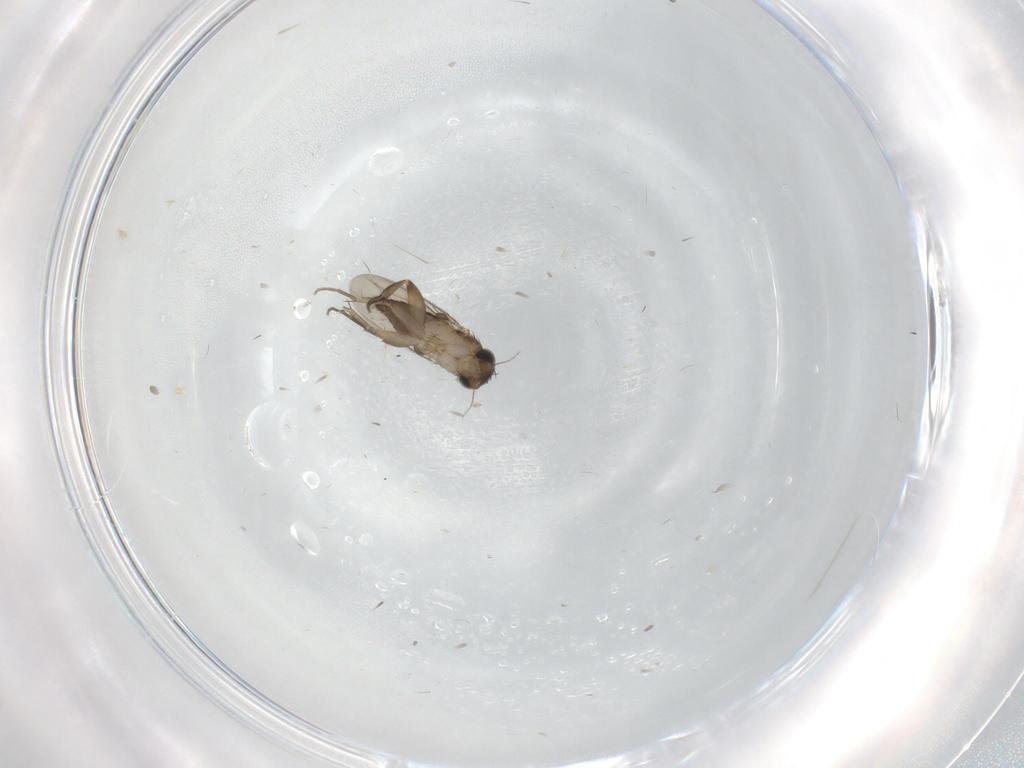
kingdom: Animalia
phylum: Arthropoda
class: Insecta
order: Diptera
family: Phoridae
